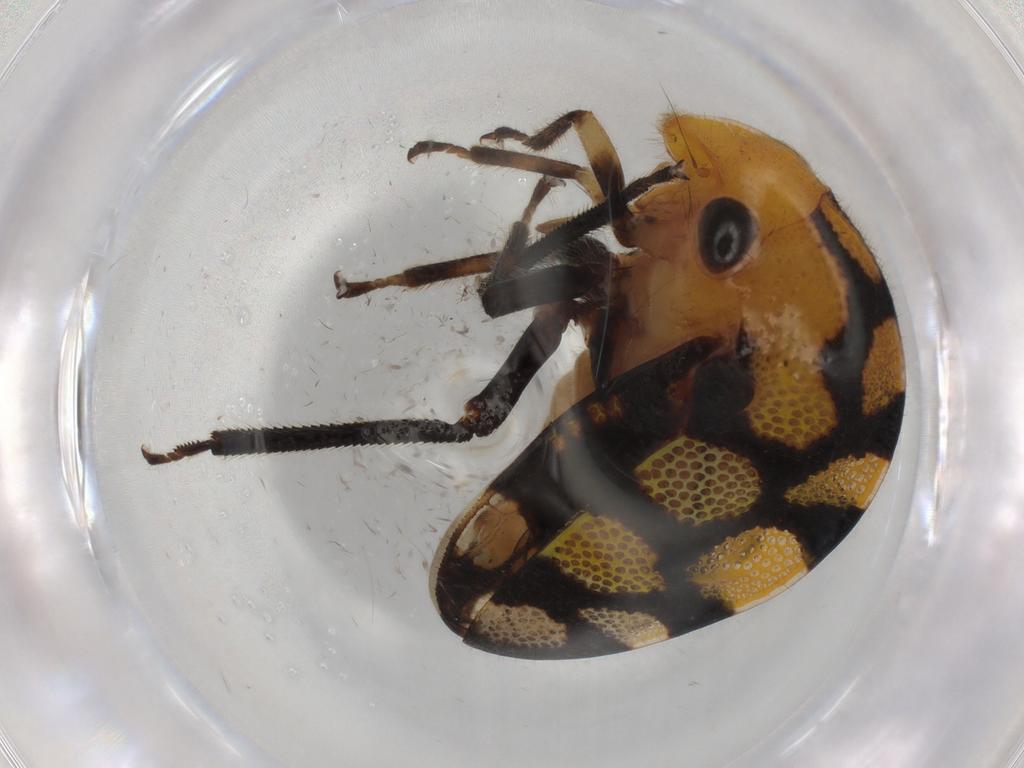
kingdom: Animalia
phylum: Arthropoda
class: Insecta
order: Hemiptera
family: Membracidae
